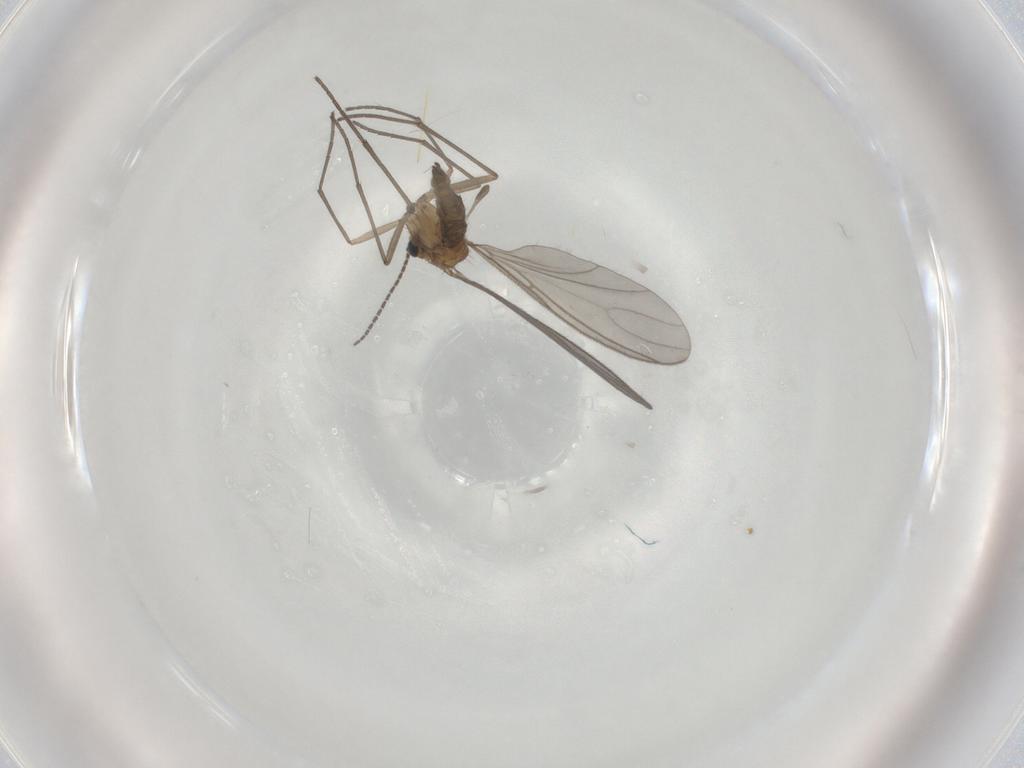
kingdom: Animalia
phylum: Arthropoda
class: Insecta
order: Diptera
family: Sciaridae
